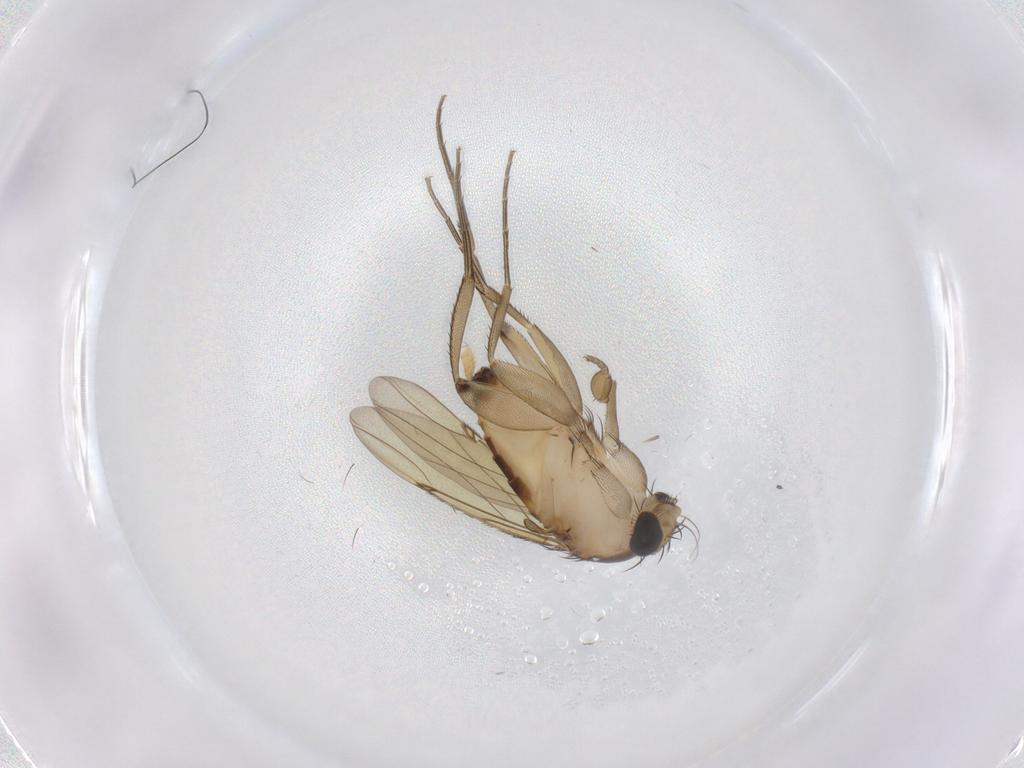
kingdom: Animalia
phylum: Arthropoda
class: Insecta
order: Diptera
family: Phoridae
